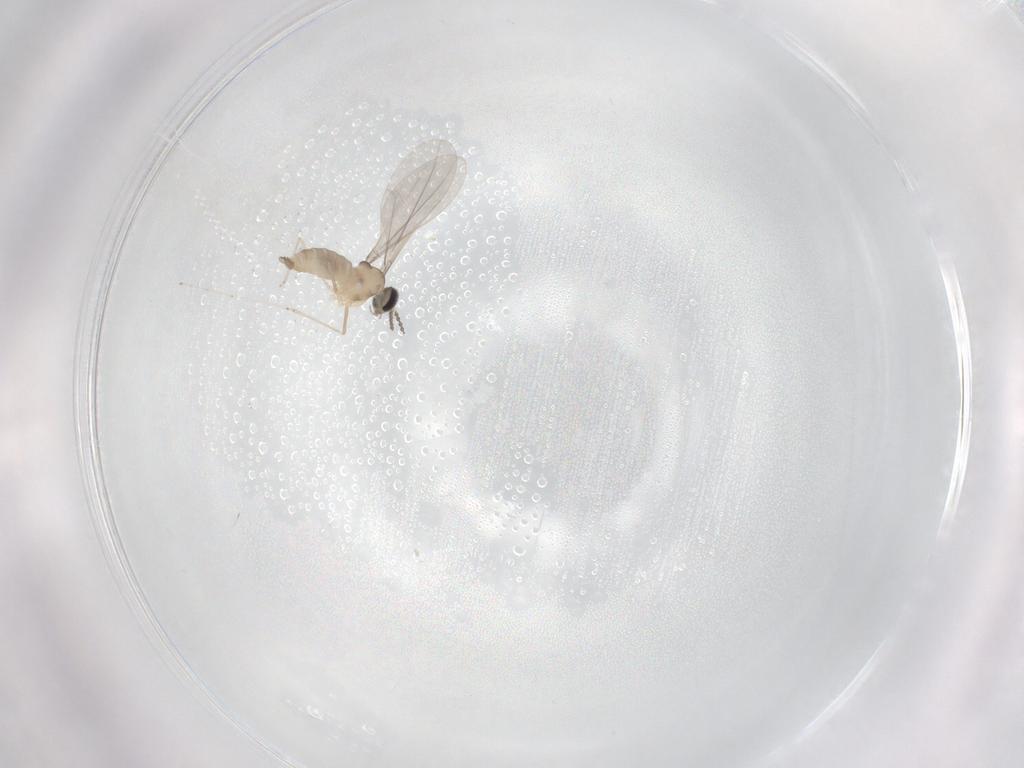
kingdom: Animalia
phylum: Arthropoda
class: Insecta
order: Diptera
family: Cecidomyiidae
